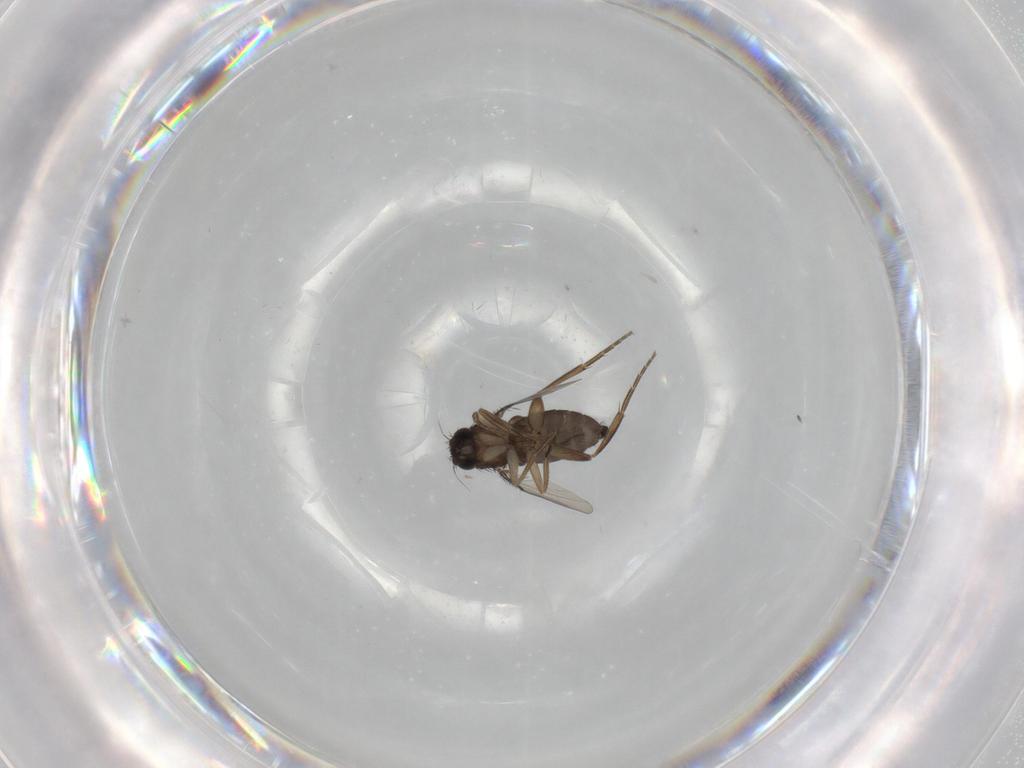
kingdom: Animalia
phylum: Arthropoda
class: Insecta
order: Diptera
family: Phoridae
